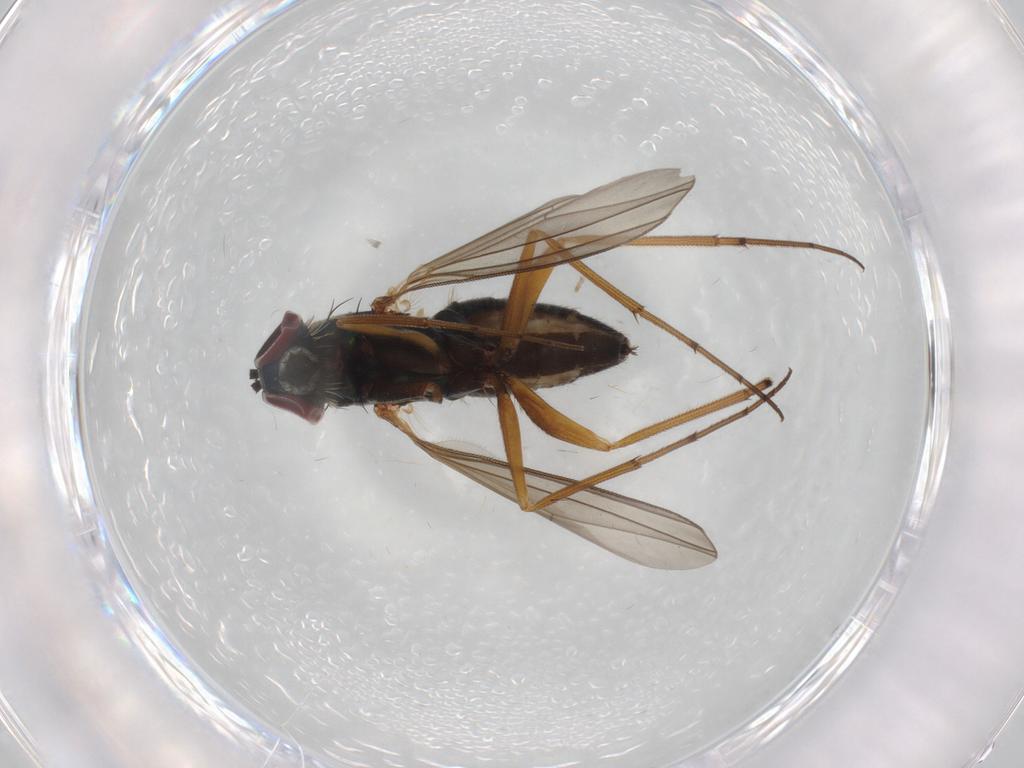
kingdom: Animalia
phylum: Arthropoda
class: Insecta
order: Diptera
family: Dolichopodidae
